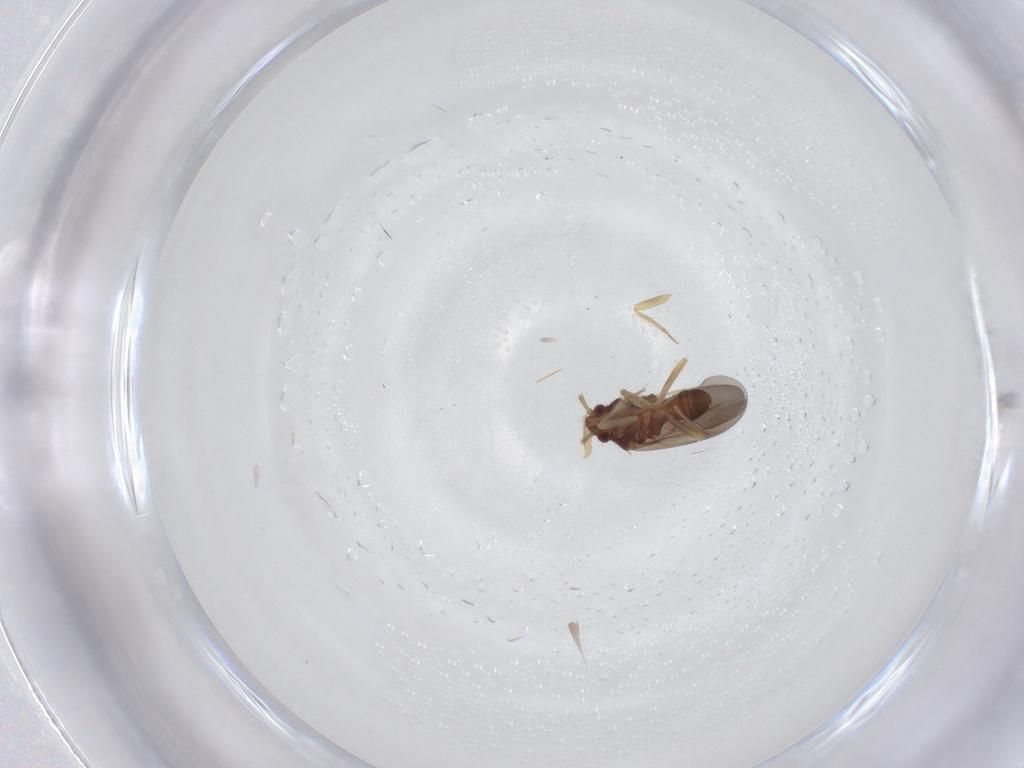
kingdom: Animalia
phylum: Arthropoda
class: Insecta
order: Hemiptera
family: Ceratocombidae
